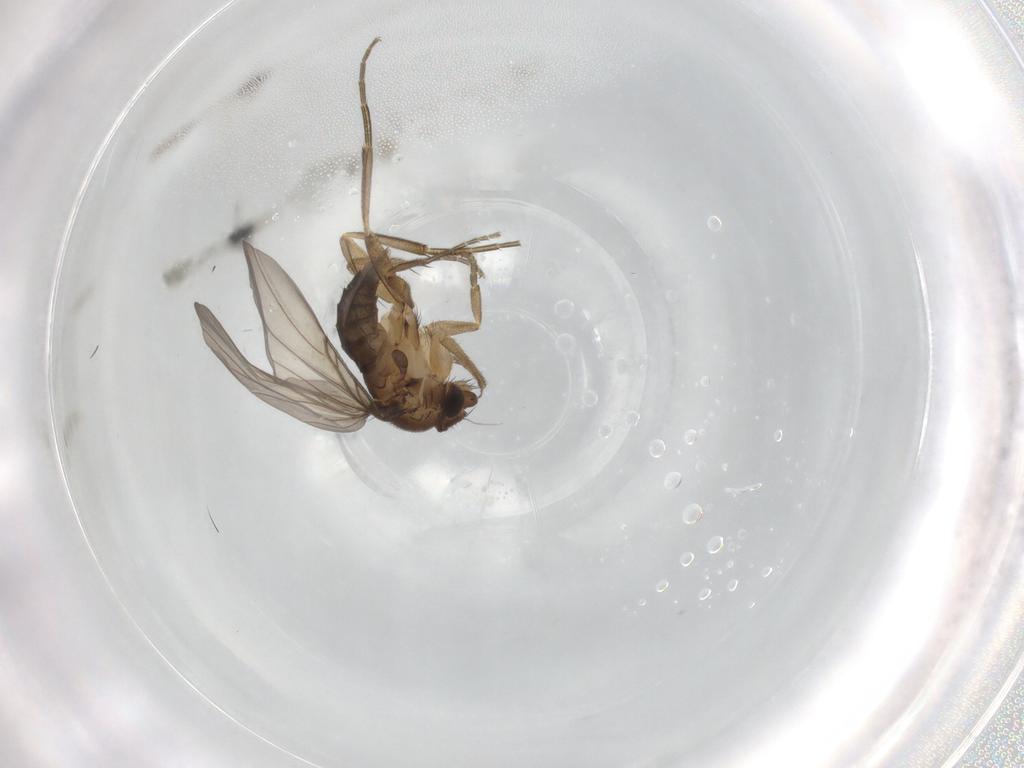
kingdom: Animalia
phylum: Arthropoda
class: Insecta
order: Diptera
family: Phoridae
